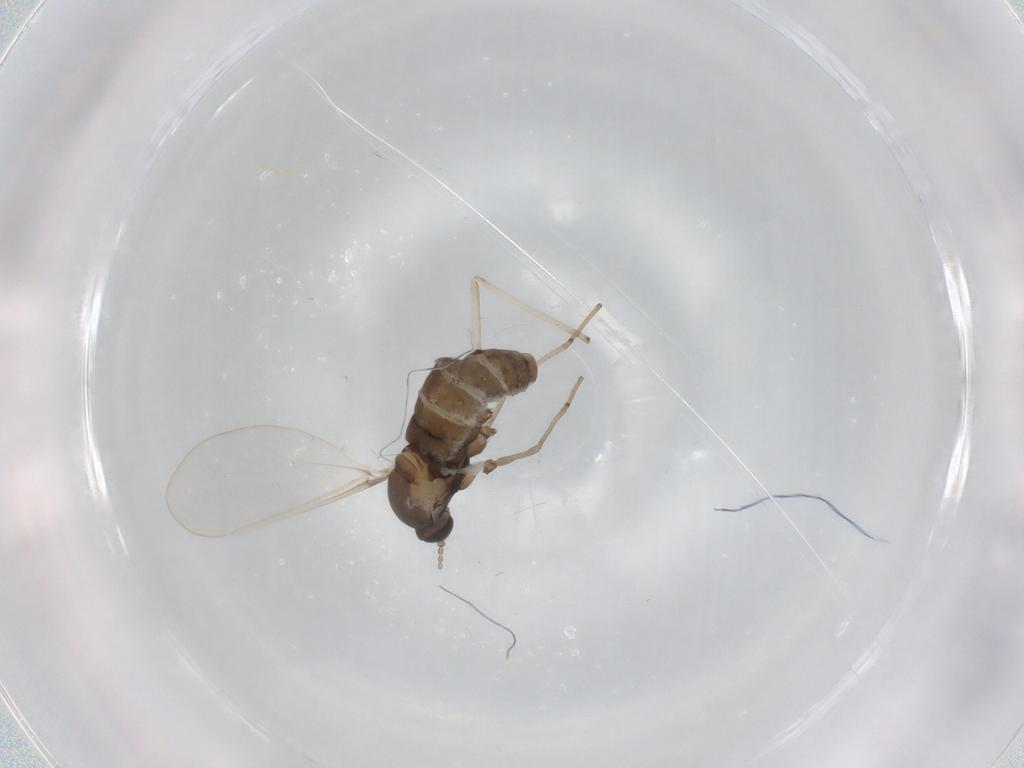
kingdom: Animalia
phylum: Arthropoda
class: Insecta
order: Diptera
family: Cecidomyiidae
